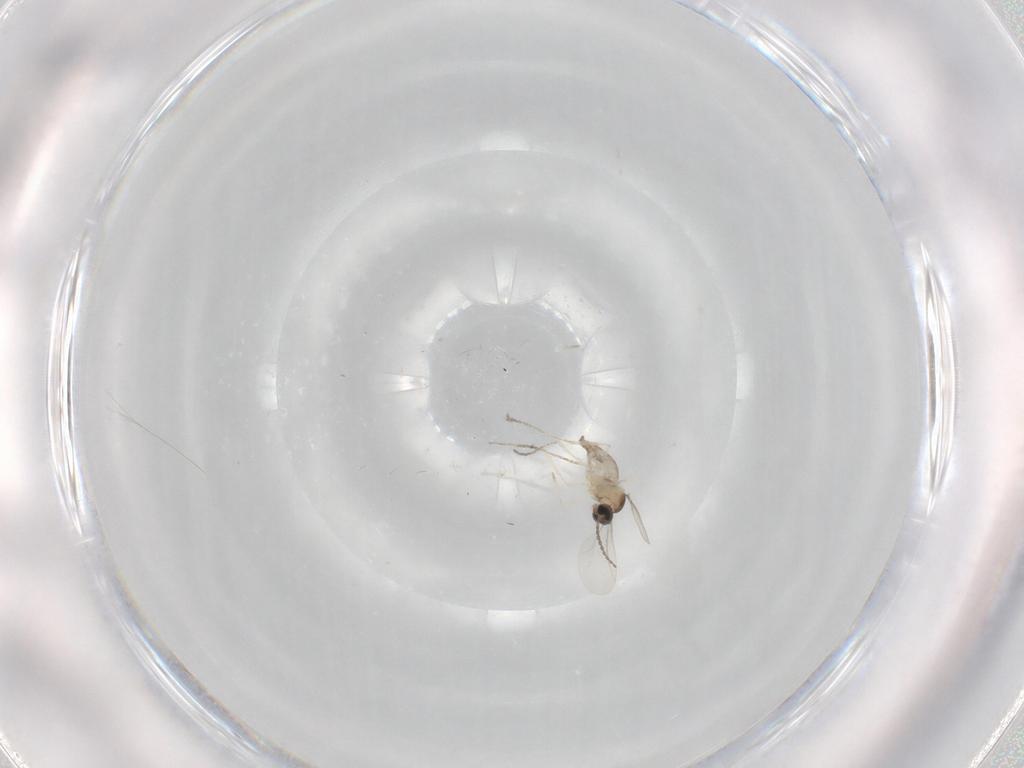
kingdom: Animalia
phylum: Arthropoda
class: Insecta
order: Diptera
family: Cecidomyiidae
